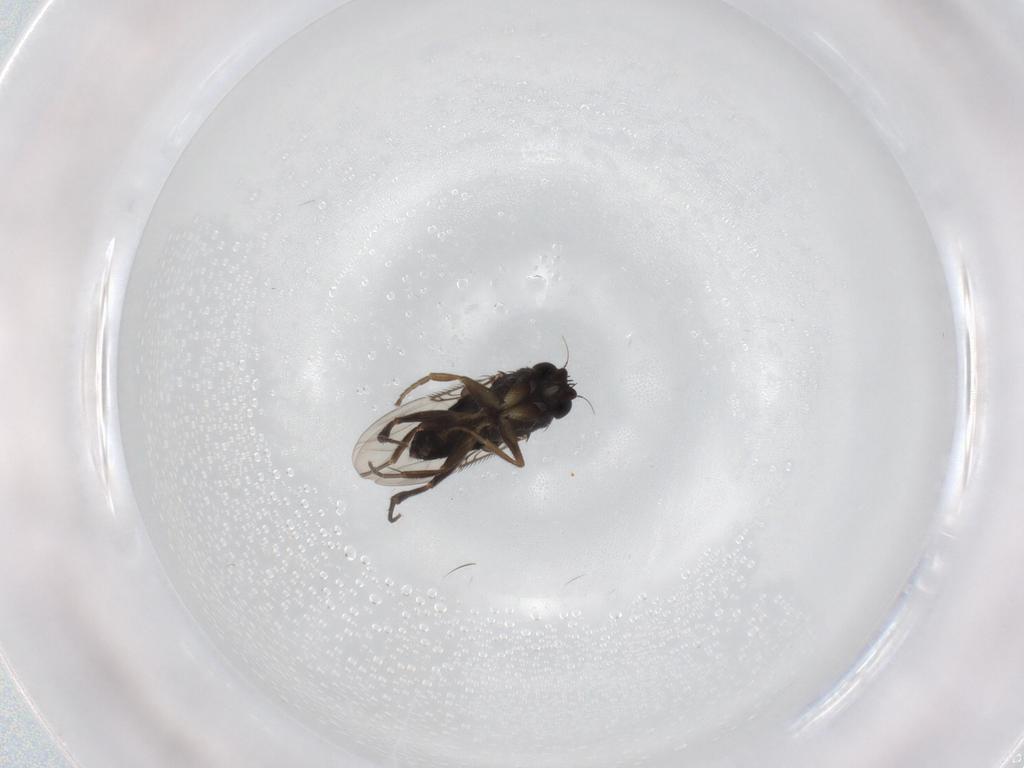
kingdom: Animalia
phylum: Arthropoda
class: Insecta
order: Diptera
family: Phoridae
